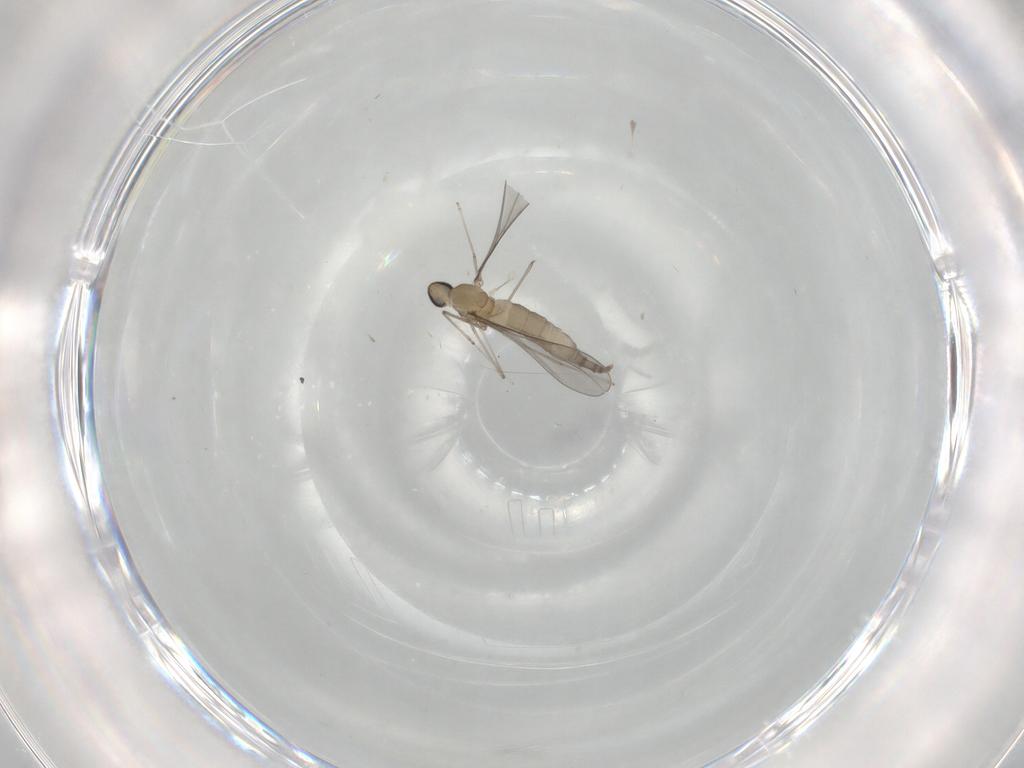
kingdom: Animalia
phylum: Arthropoda
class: Insecta
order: Diptera
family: Cecidomyiidae
